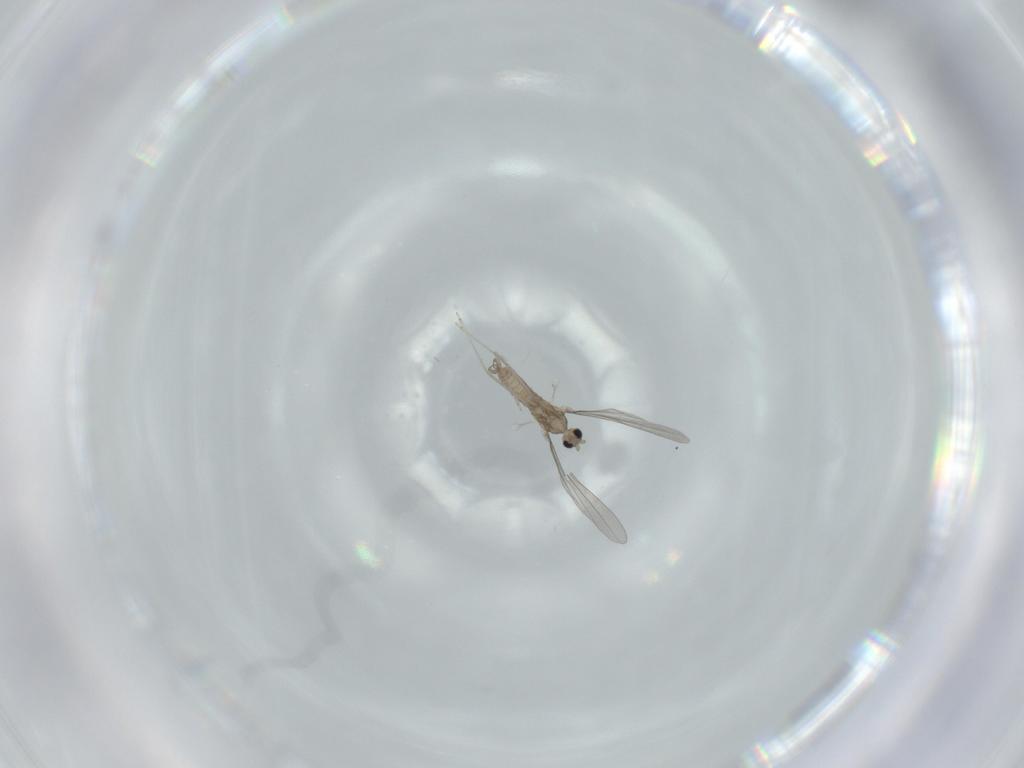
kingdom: Animalia
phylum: Arthropoda
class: Insecta
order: Diptera
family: Cecidomyiidae
